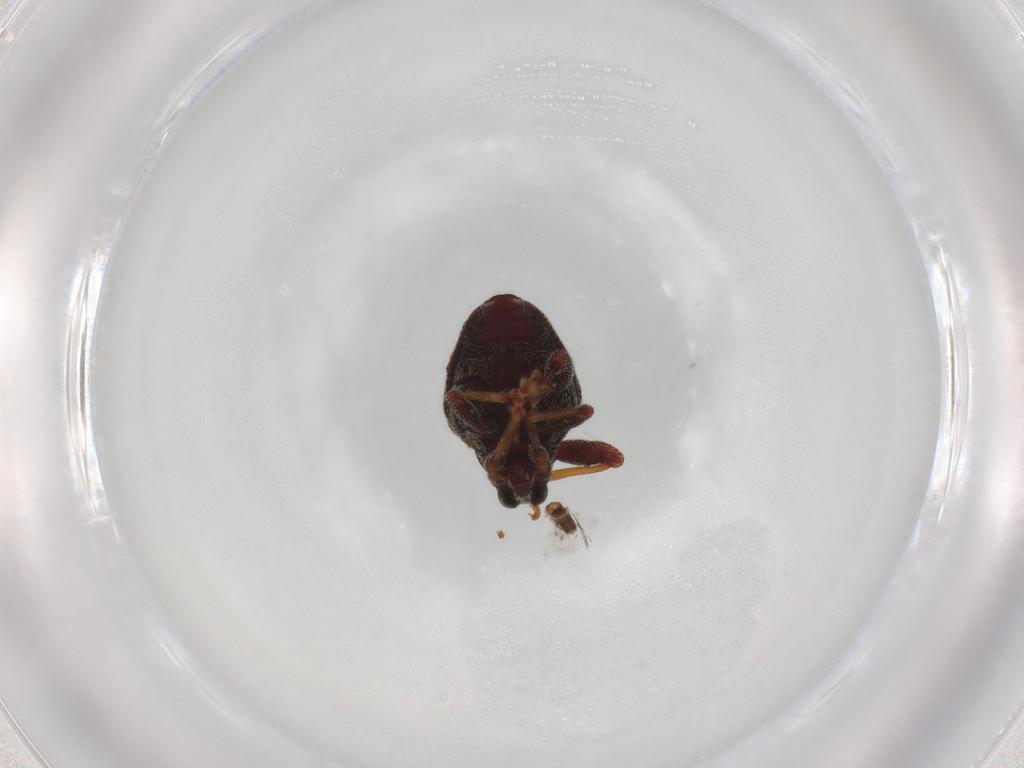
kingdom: Animalia
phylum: Arthropoda
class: Insecta
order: Coleoptera
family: Curculionidae
